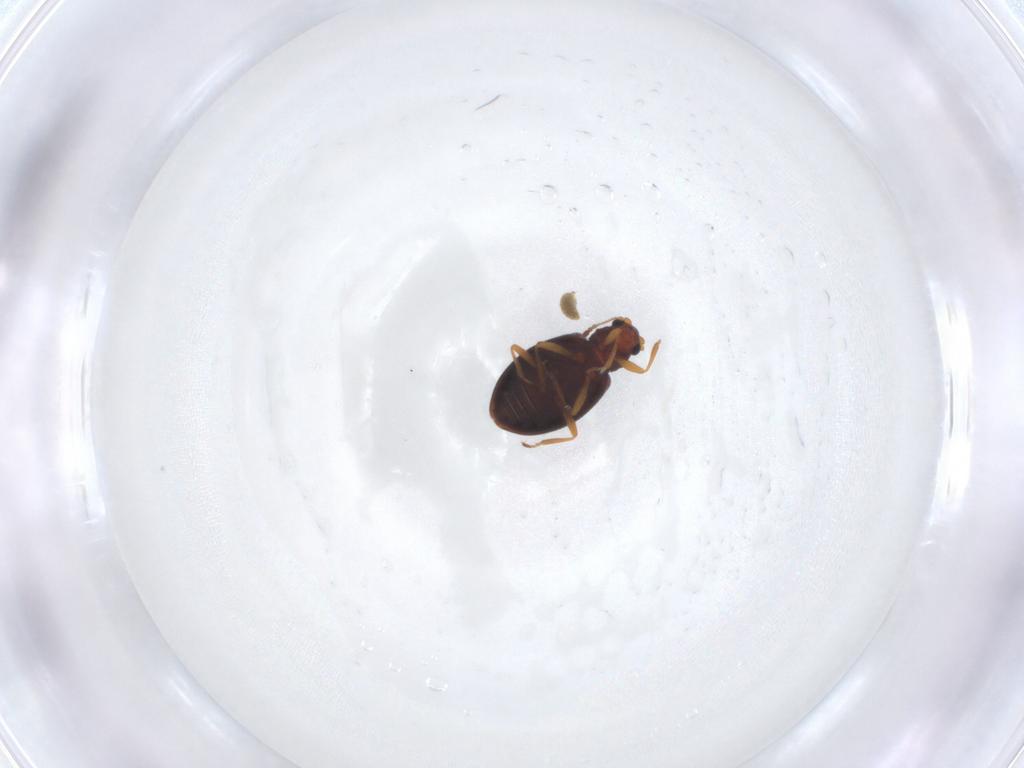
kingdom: Animalia
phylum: Arthropoda
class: Insecta
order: Coleoptera
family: Latridiidae
